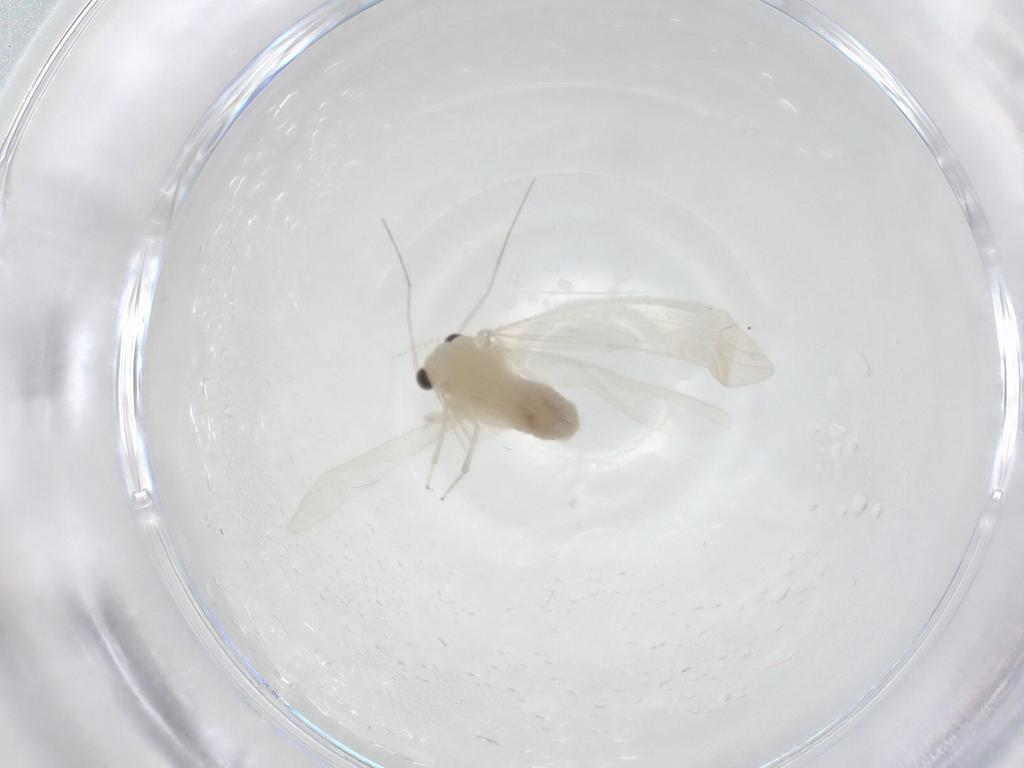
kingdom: Animalia
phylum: Arthropoda
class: Insecta
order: Psocodea
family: Caeciliusidae
